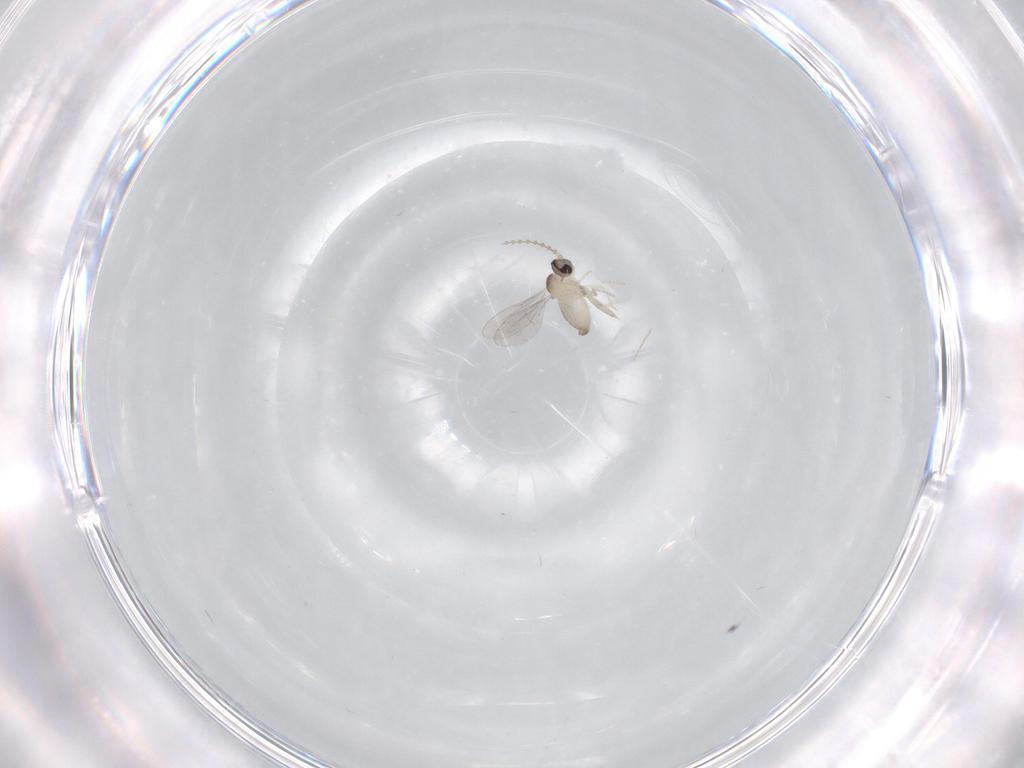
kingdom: Animalia
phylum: Arthropoda
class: Insecta
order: Diptera
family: Cecidomyiidae
